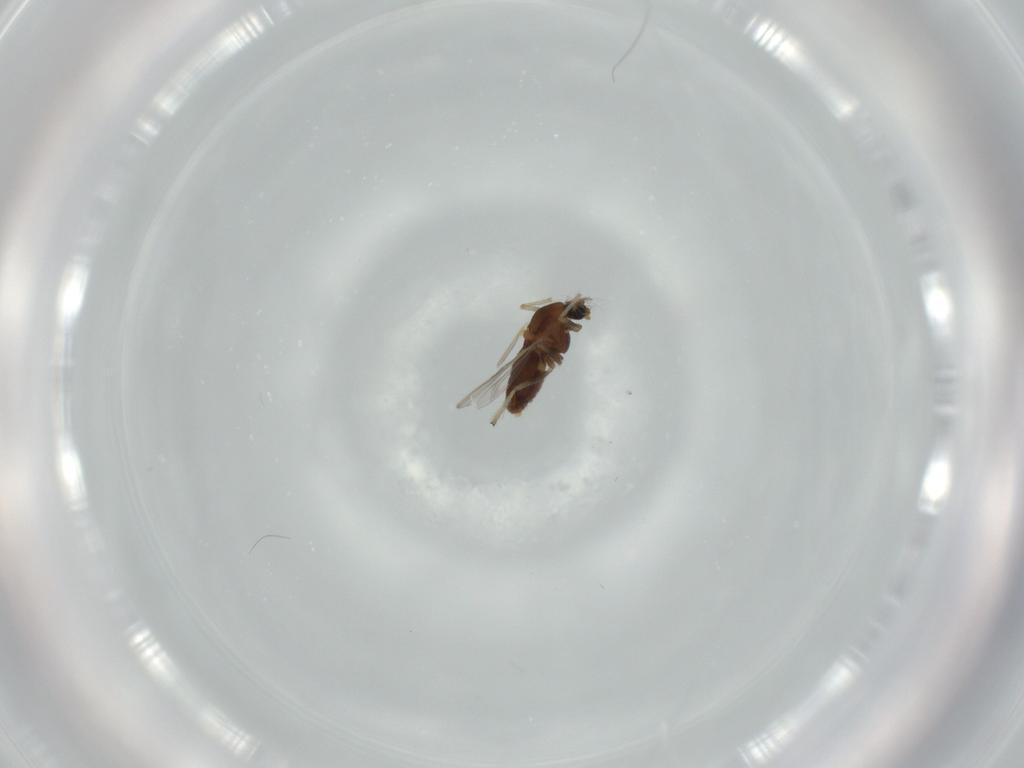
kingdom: Animalia
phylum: Arthropoda
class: Insecta
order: Diptera
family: Chironomidae
